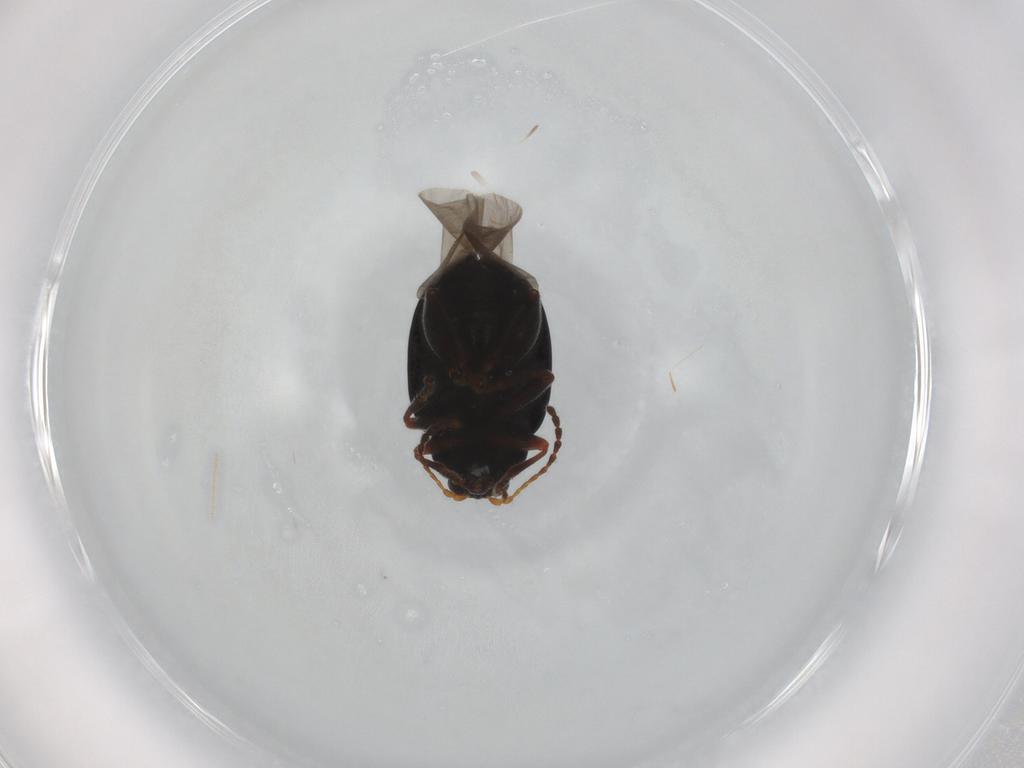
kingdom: Animalia
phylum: Arthropoda
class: Insecta
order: Coleoptera
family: Chrysomelidae
